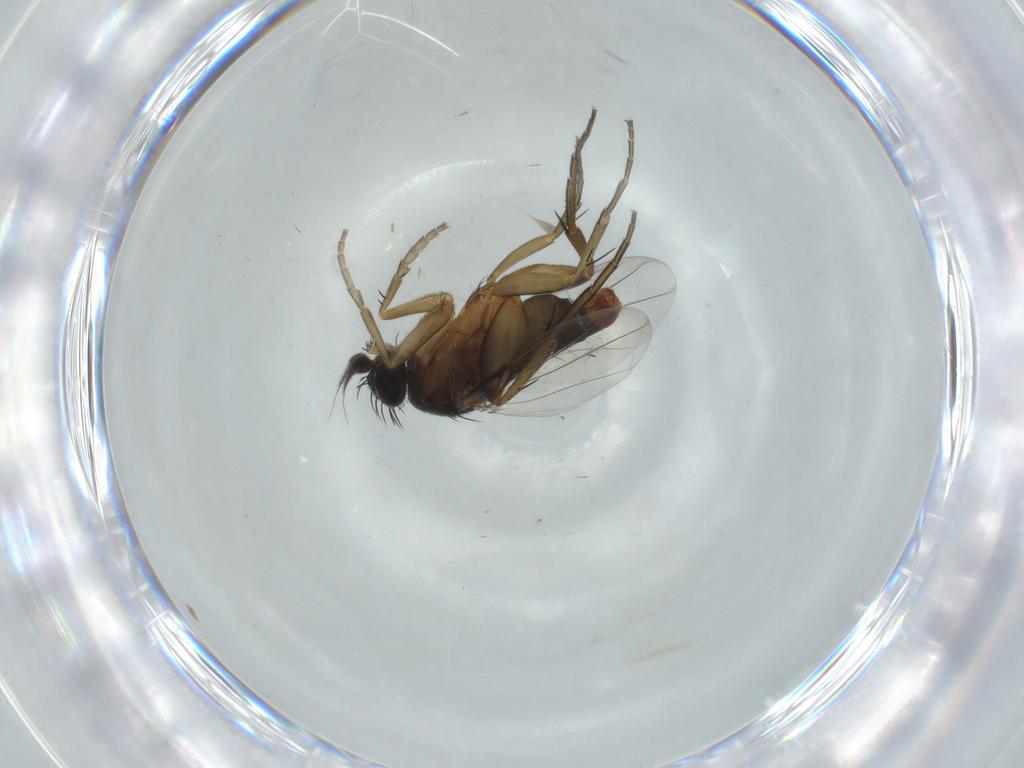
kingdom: Animalia
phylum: Arthropoda
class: Insecta
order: Diptera
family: Phoridae
